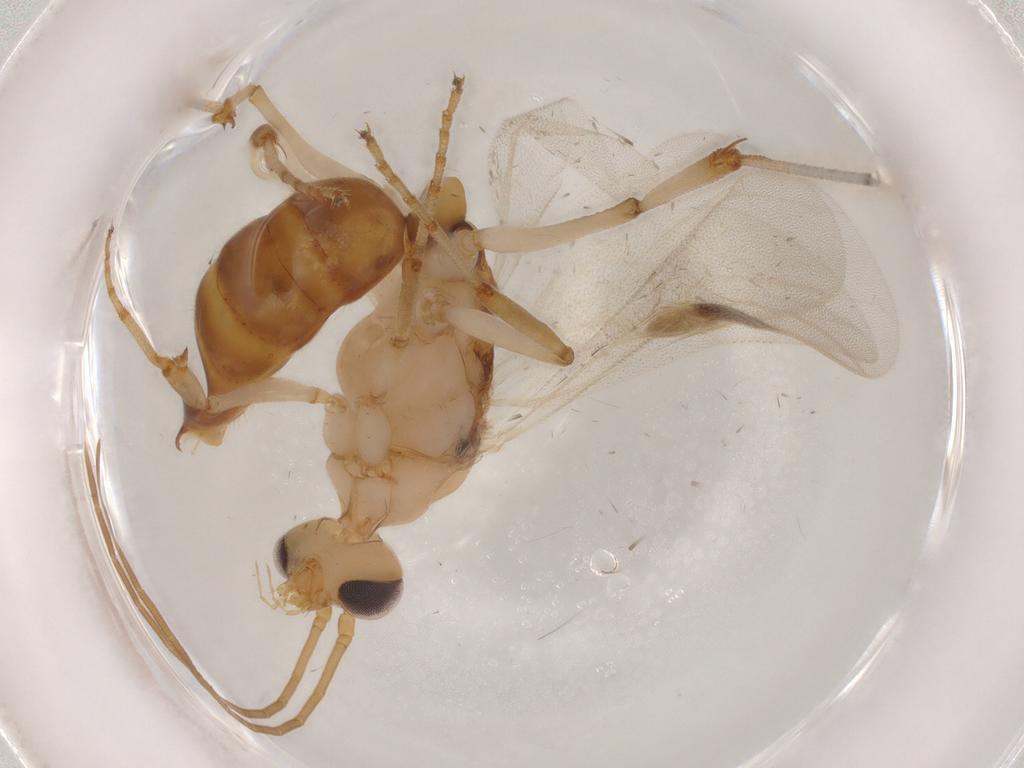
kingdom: Animalia
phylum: Arthropoda
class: Insecta
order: Hymenoptera
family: Formicidae
